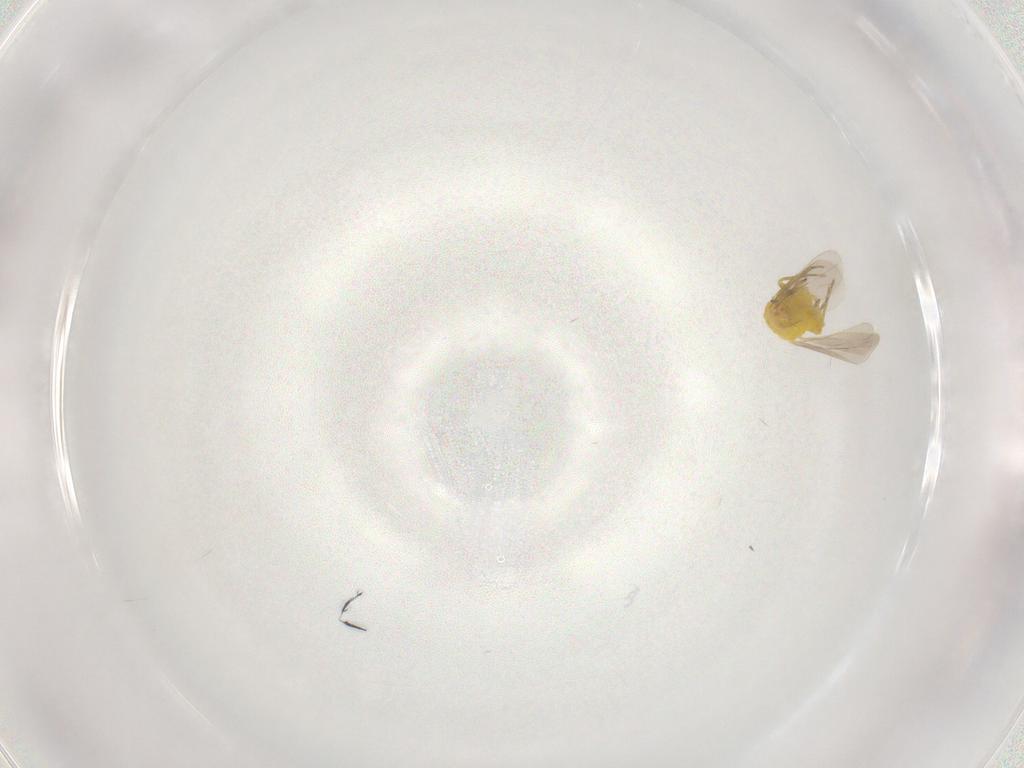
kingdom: Animalia
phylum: Arthropoda
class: Insecta
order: Hemiptera
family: Aleyrodidae
